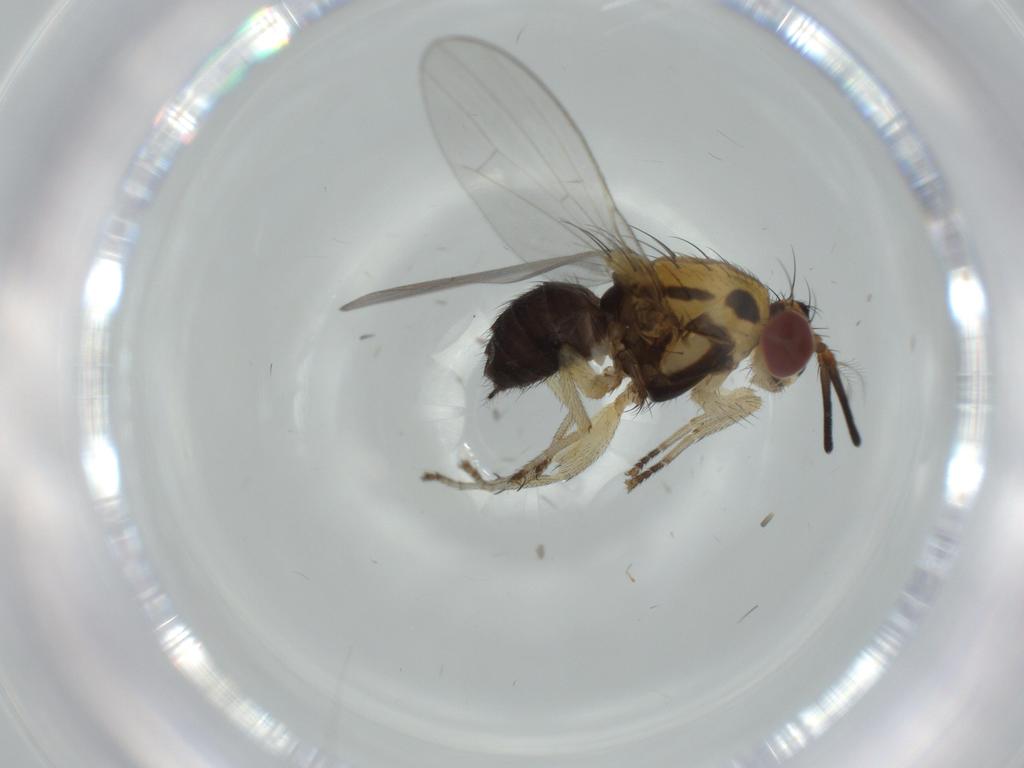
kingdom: Animalia
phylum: Arthropoda
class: Insecta
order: Diptera
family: Lauxaniidae
